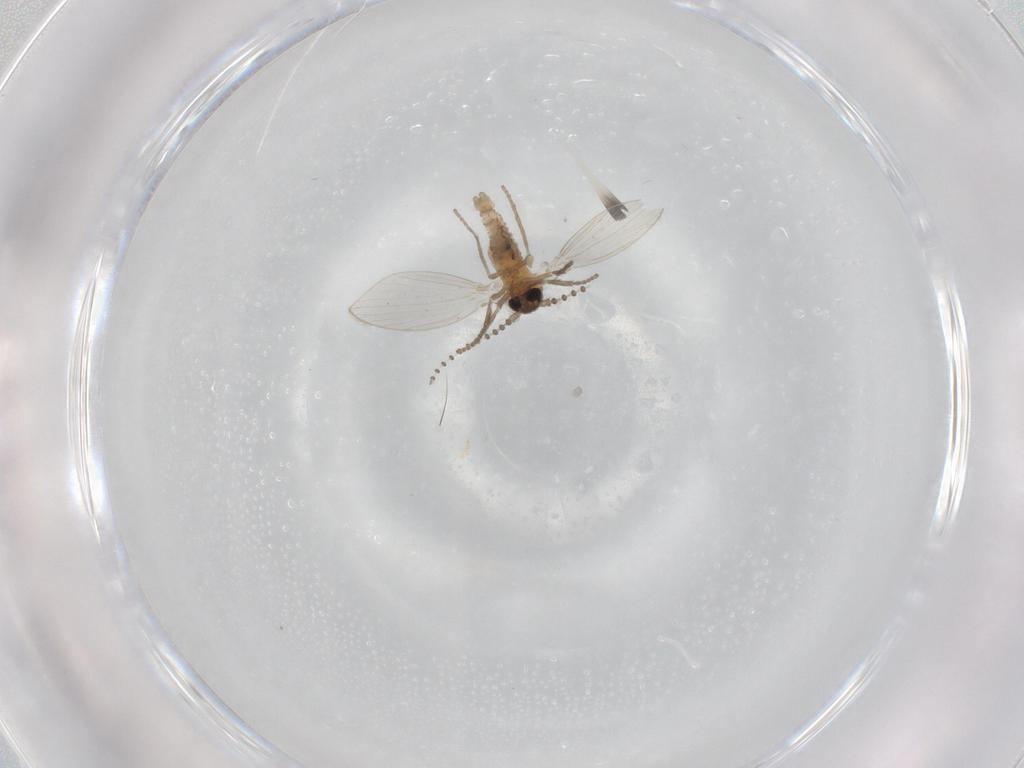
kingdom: Animalia
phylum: Arthropoda
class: Insecta
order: Diptera
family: Psychodidae
